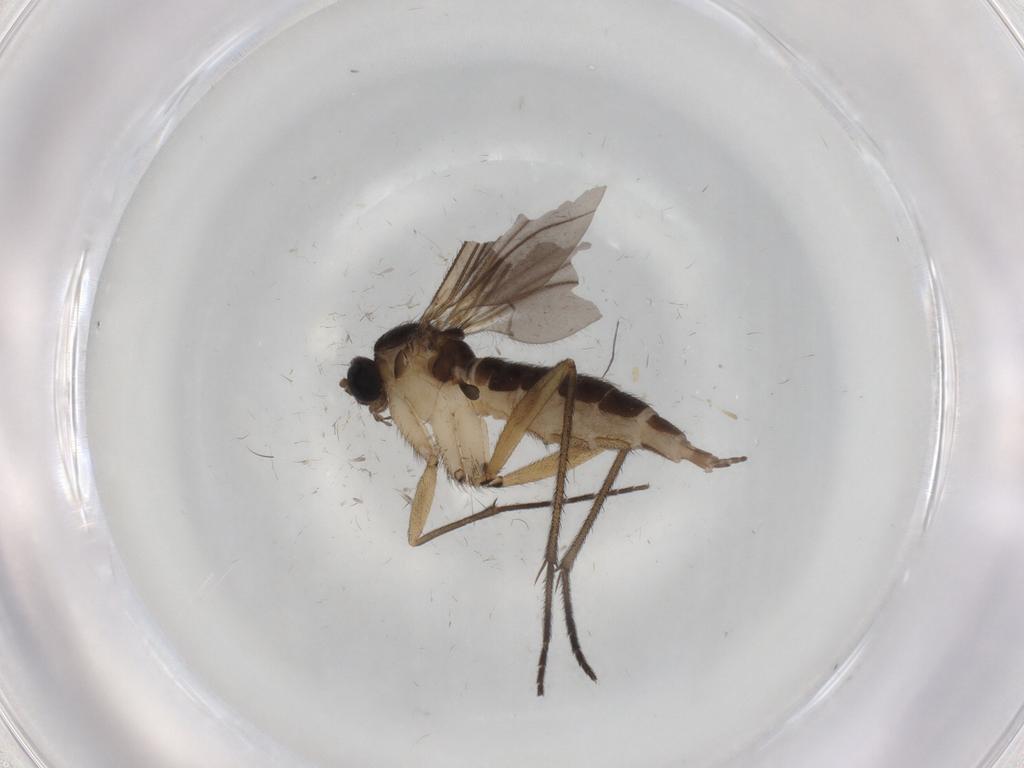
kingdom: Animalia
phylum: Arthropoda
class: Insecta
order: Diptera
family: Sciaridae
